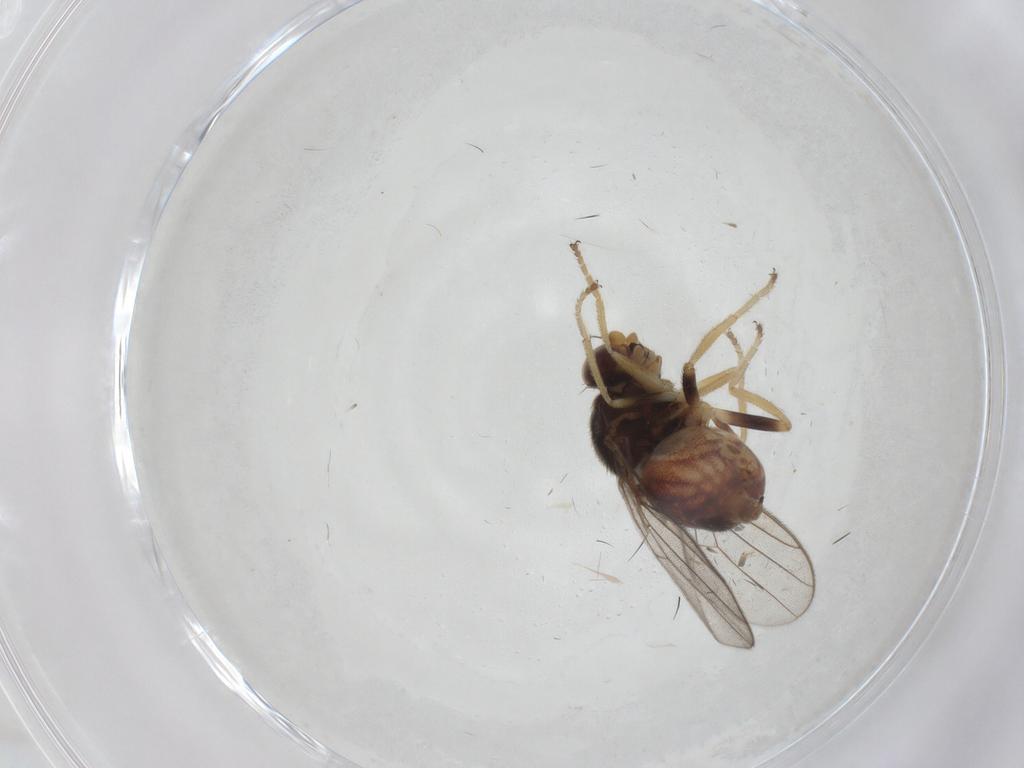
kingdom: Animalia
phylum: Arthropoda
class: Insecta
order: Diptera
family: Chloropidae
